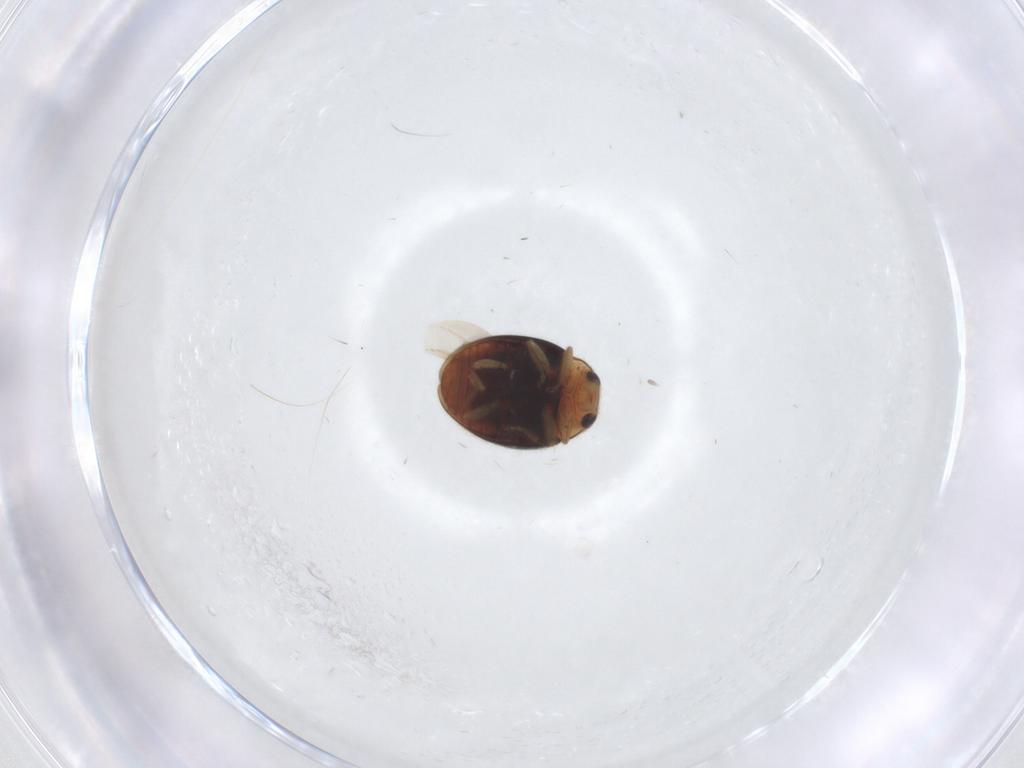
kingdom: Animalia
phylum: Arthropoda
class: Insecta
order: Coleoptera
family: Coccinellidae
